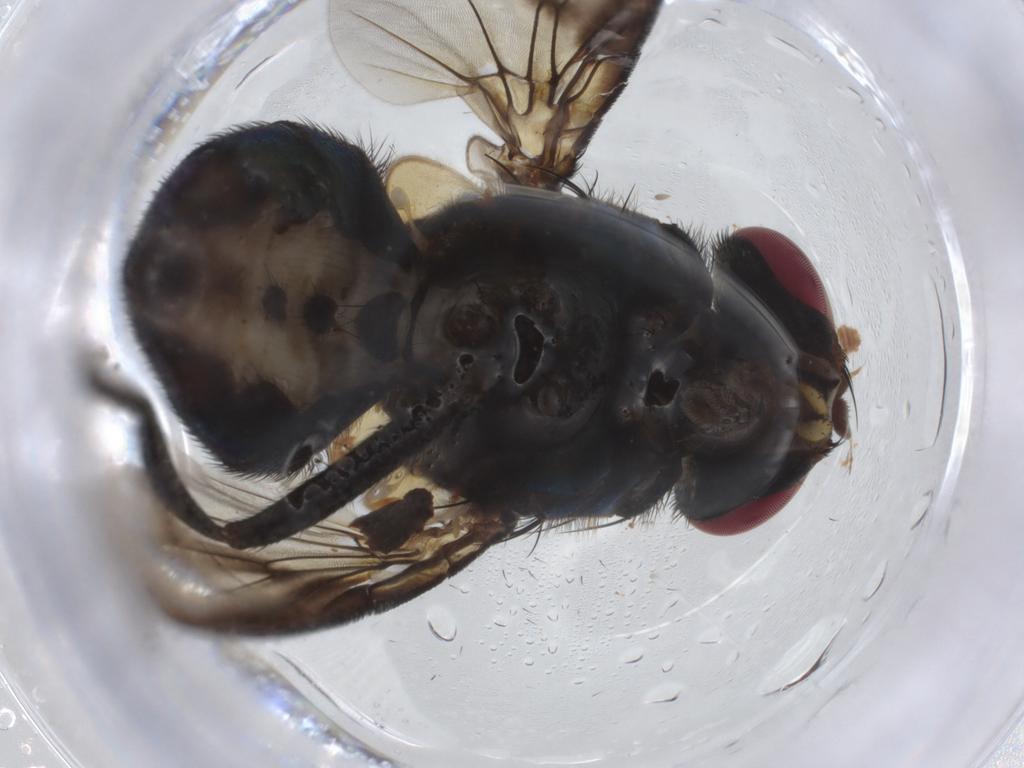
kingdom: Animalia
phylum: Arthropoda
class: Insecta
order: Diptera
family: Muscidae
